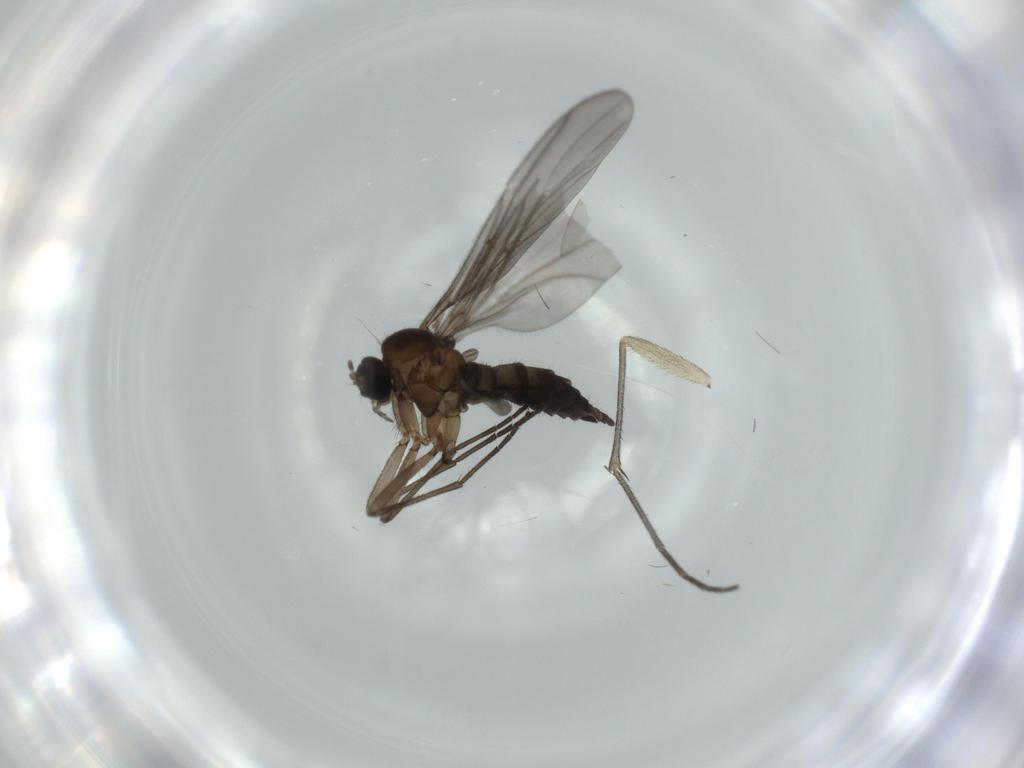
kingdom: Animalia
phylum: Arthropoda
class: Insecta
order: Diptera
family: Sciaridae
